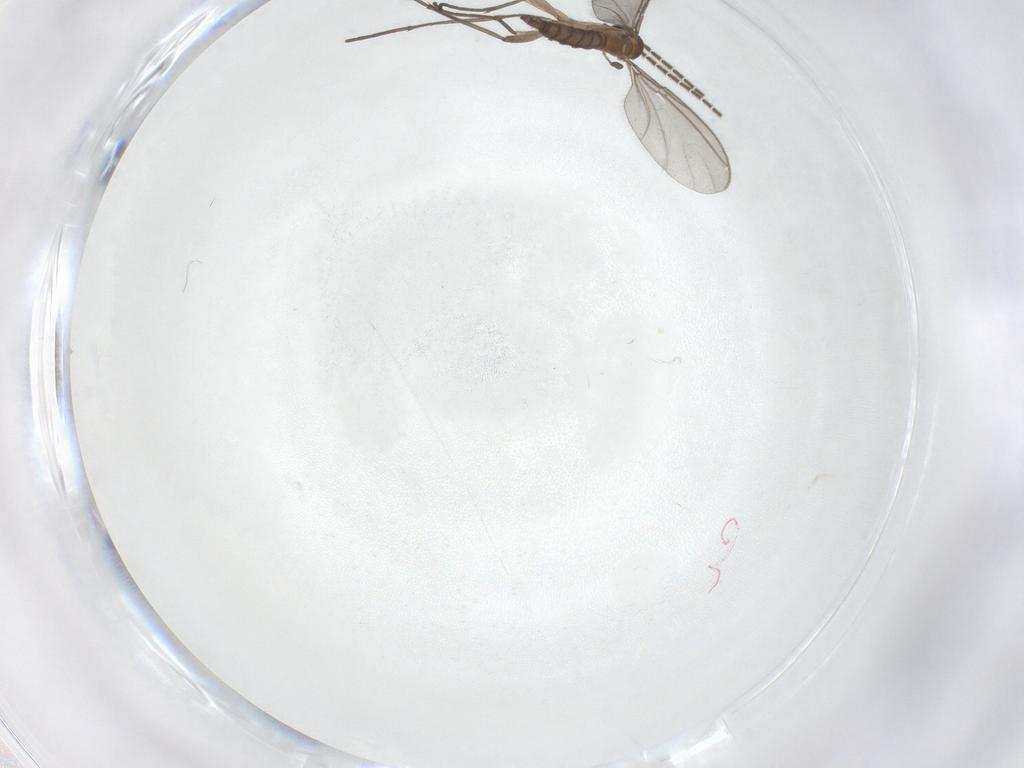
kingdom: Animalia
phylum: Arthropoda
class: Insecta
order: Diptera
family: Sciaridae
